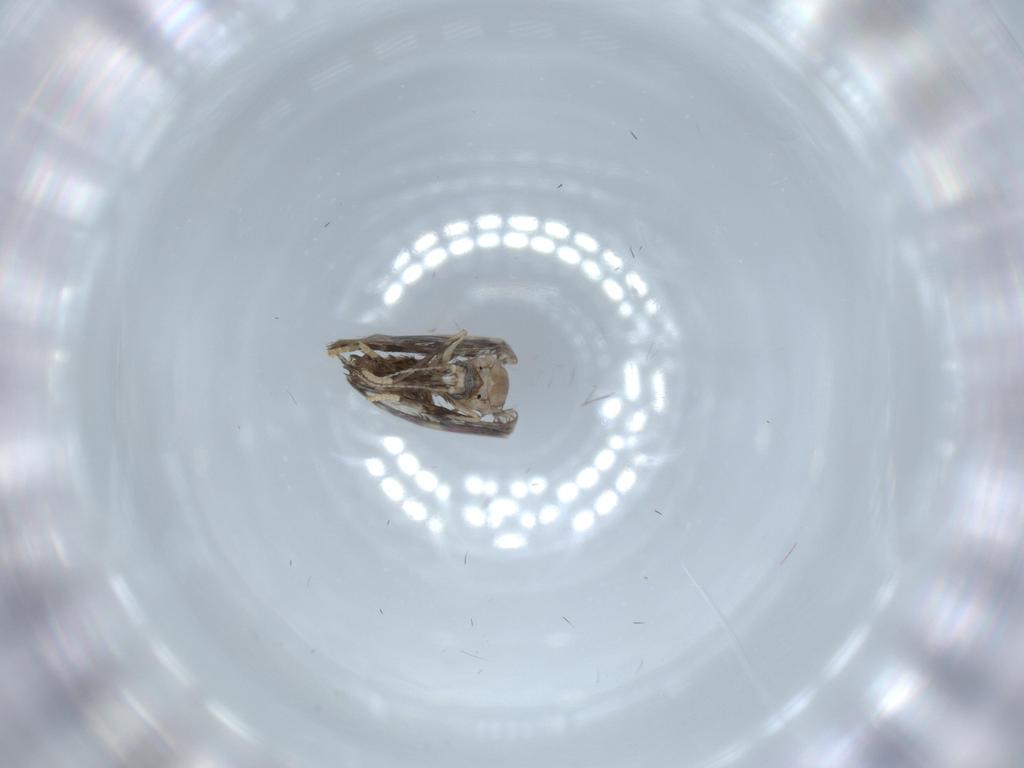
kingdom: Animalia
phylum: Arthropoda
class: Insecta
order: Diptera
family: Psychodidae
